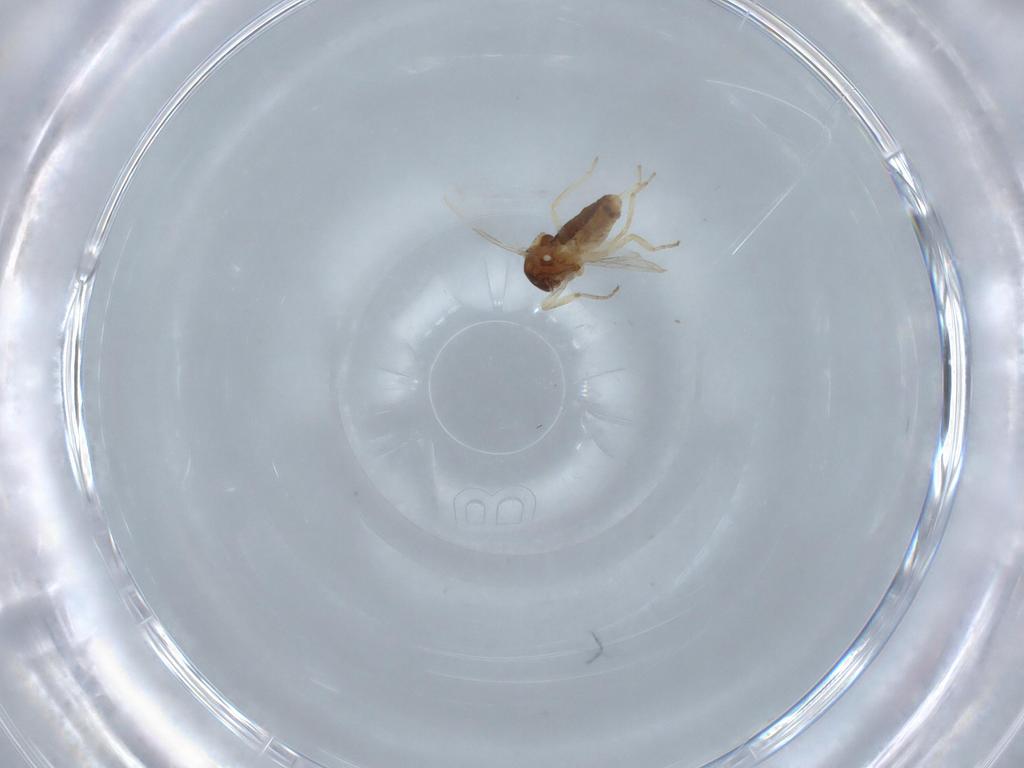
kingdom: Animalia
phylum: Arthropoda
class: Insecta
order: Diptera
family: Ceratopogonidae
